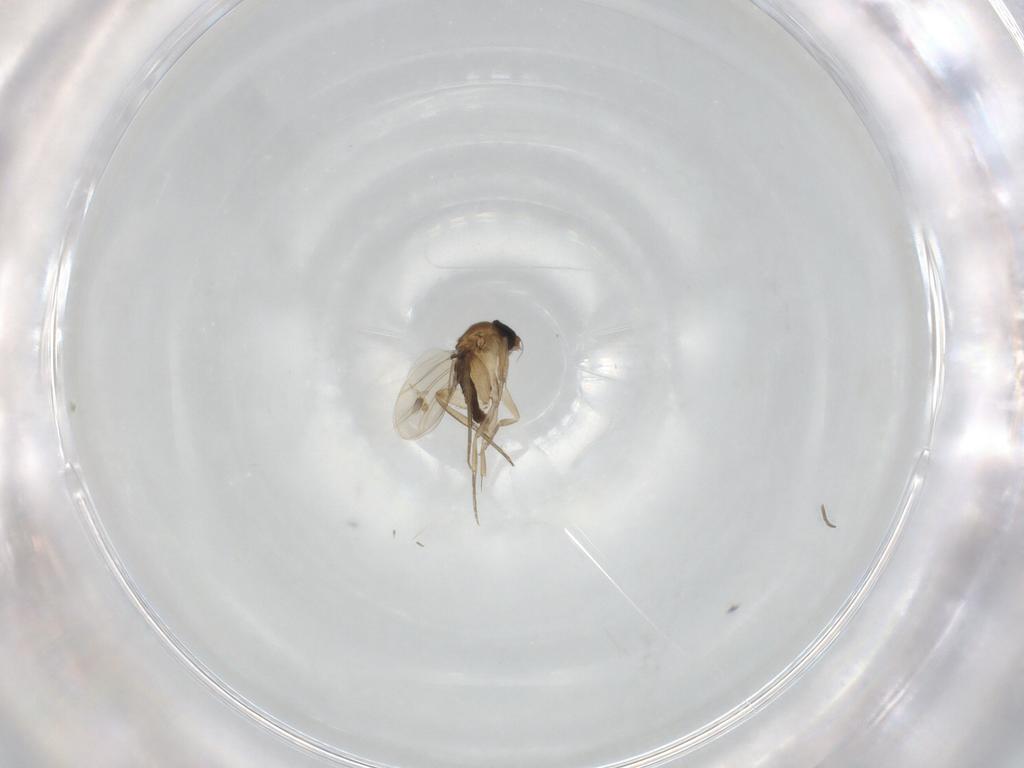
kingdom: Animalia
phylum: Arthropoda
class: Insecta
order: Diptera
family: Phoridae
